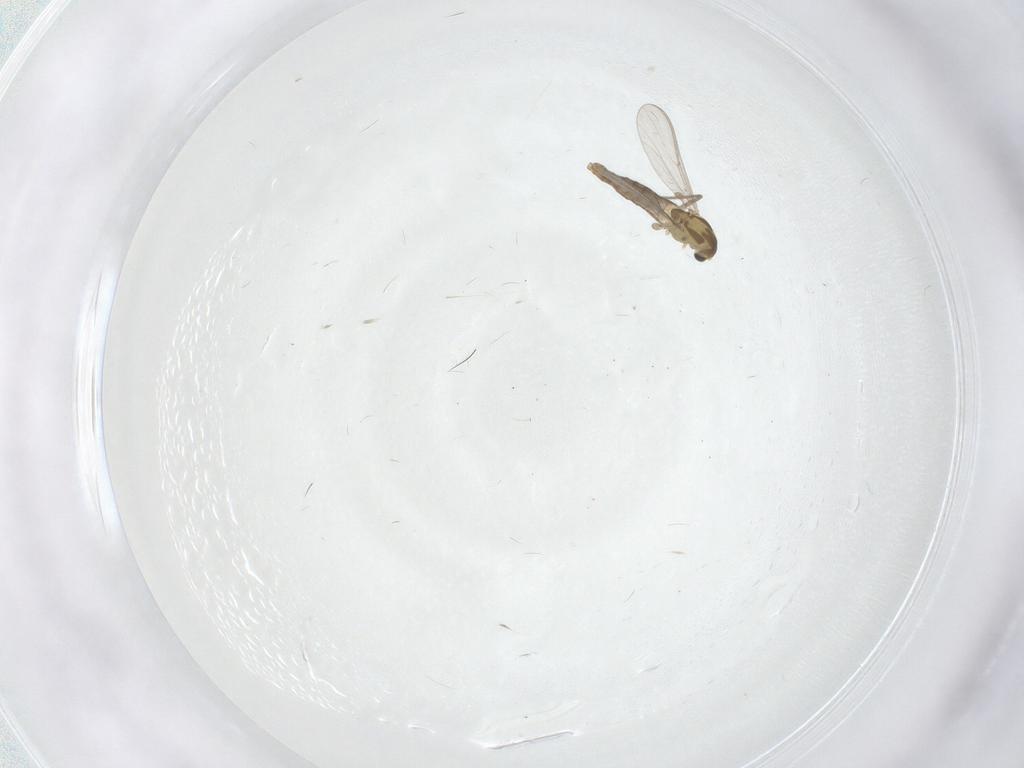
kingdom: Animalia
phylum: Arthropoda
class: Insecta
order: Diptera
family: Chironomidae
